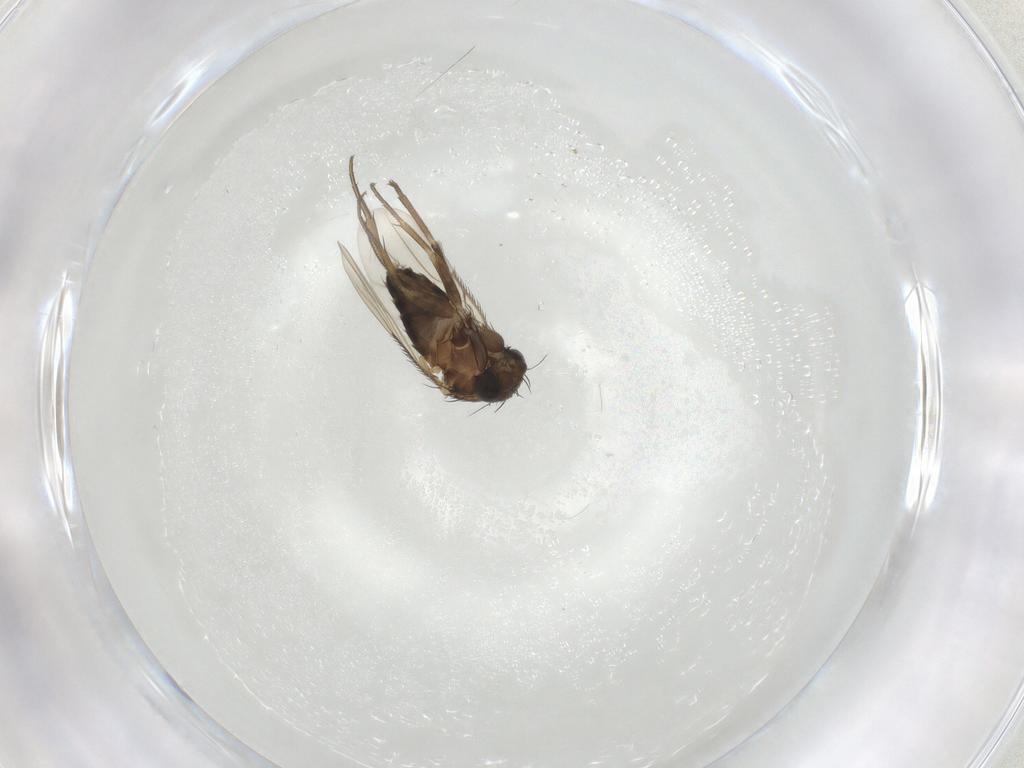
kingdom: Animalia
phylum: Arthropoda
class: Insecta
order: Diptera
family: Phoridae
